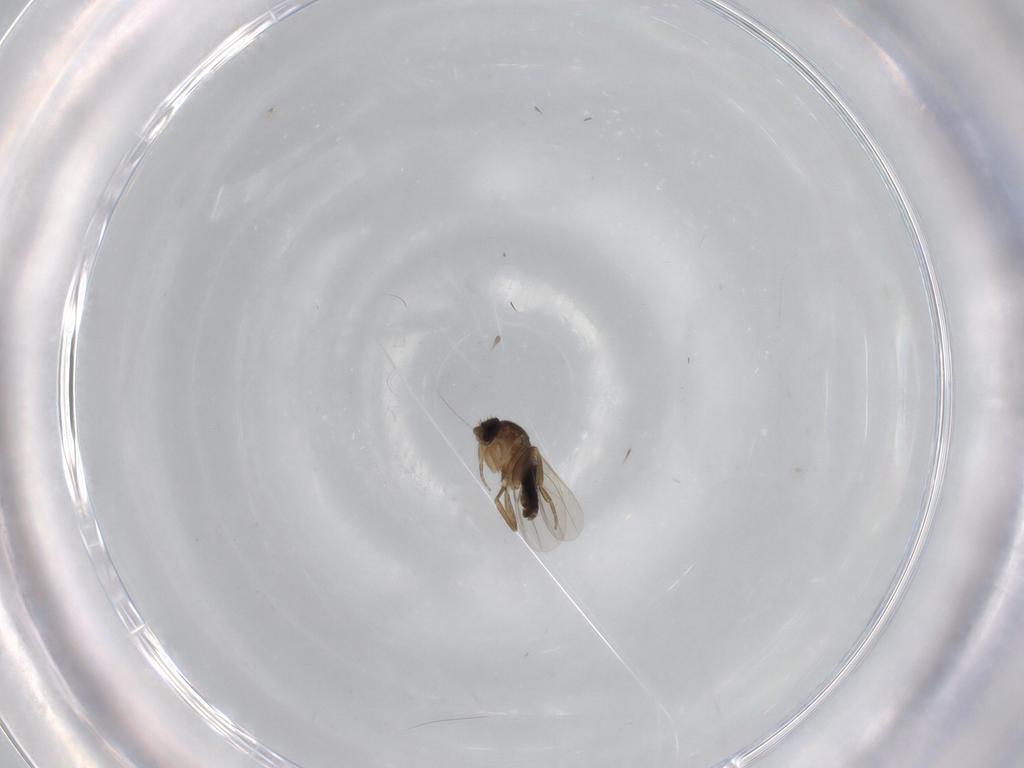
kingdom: Animalia
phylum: Arthropoda
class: Insecta
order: Diptera
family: Phoridae
